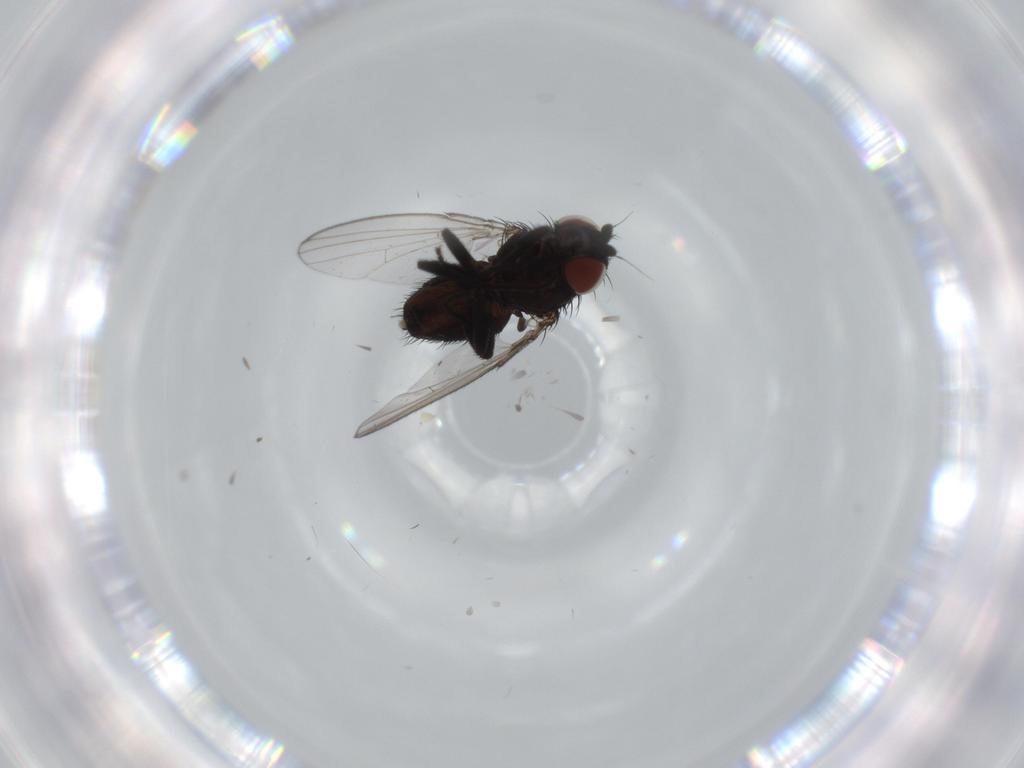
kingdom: Animalia
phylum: Arthropoda
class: Insecta
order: Diptera
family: Milichiidae
